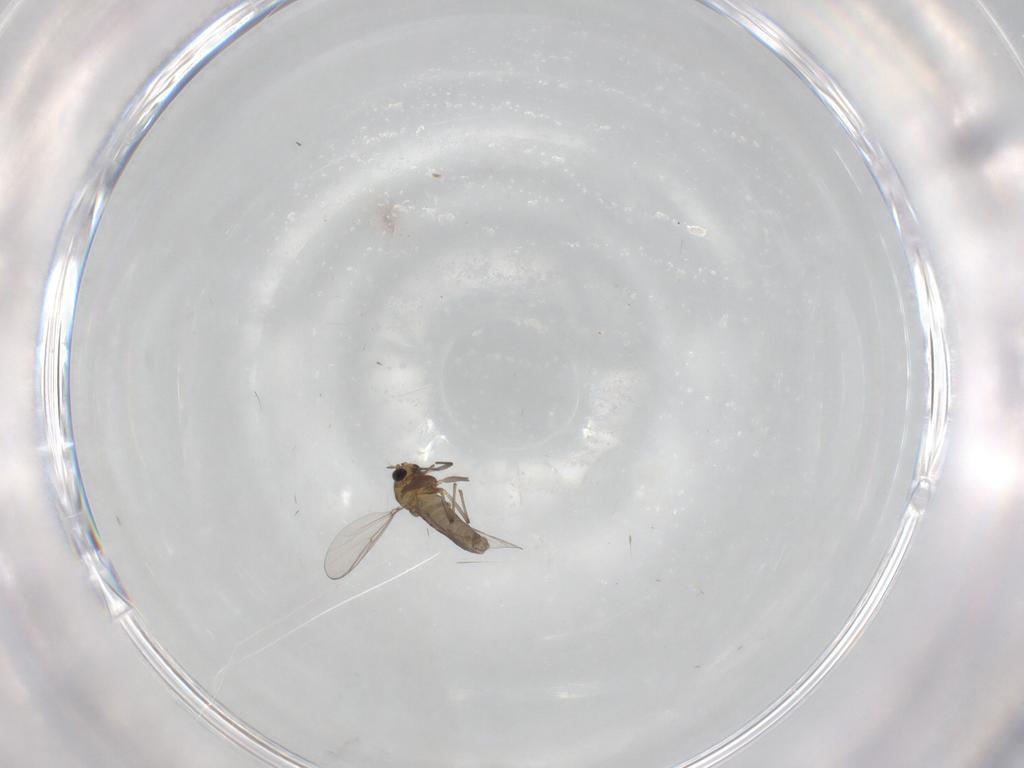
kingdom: Animalia
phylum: Arthropoda
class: Insecta
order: Diptera
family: Chironomidae
